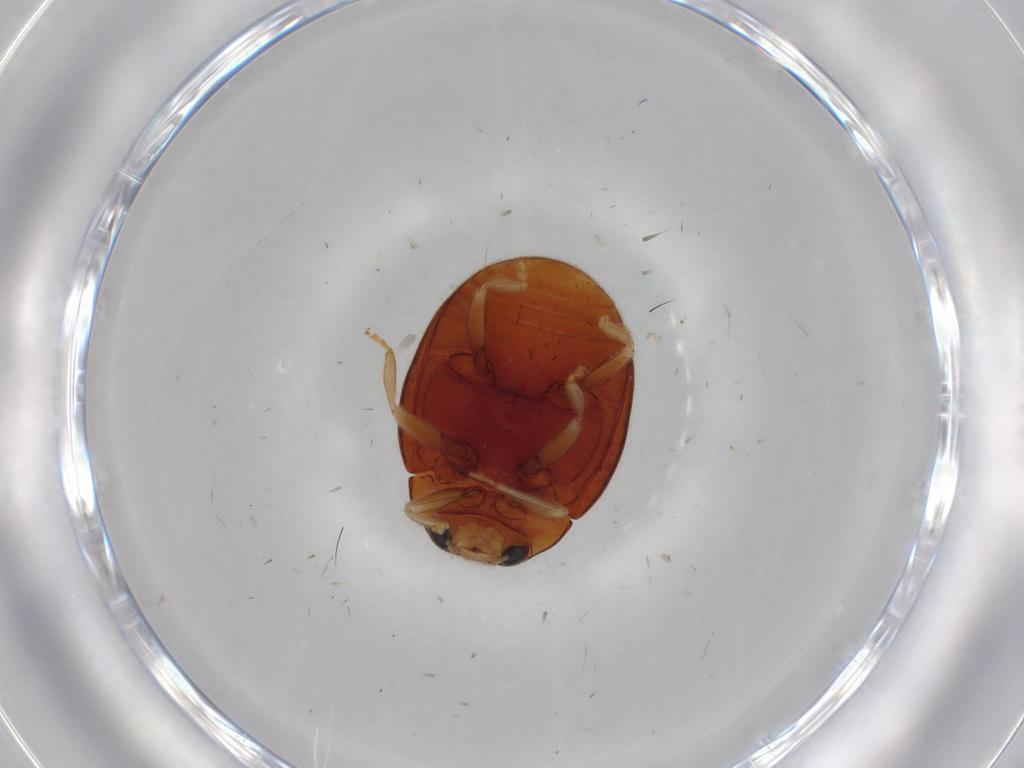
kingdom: Animalia
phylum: Arthropoda
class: Insecta
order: Coleoptera
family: Coccinellidae
